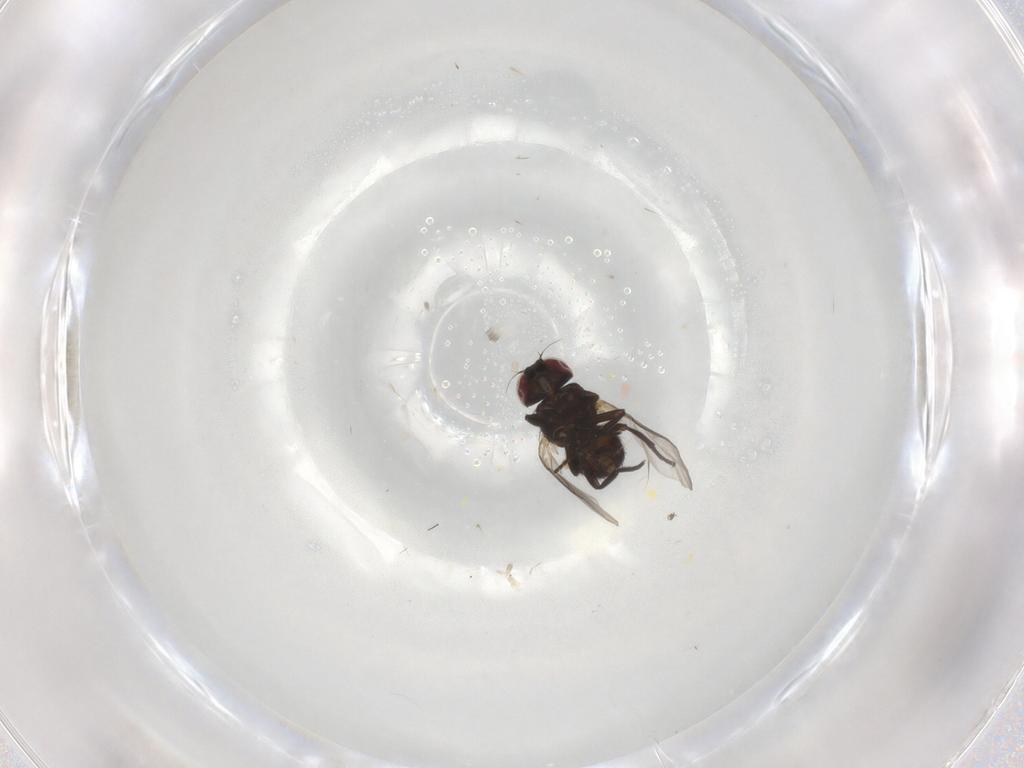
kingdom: Animalia
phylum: Arthropoda
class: Insecta
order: Diptera
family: Agromyzidae
